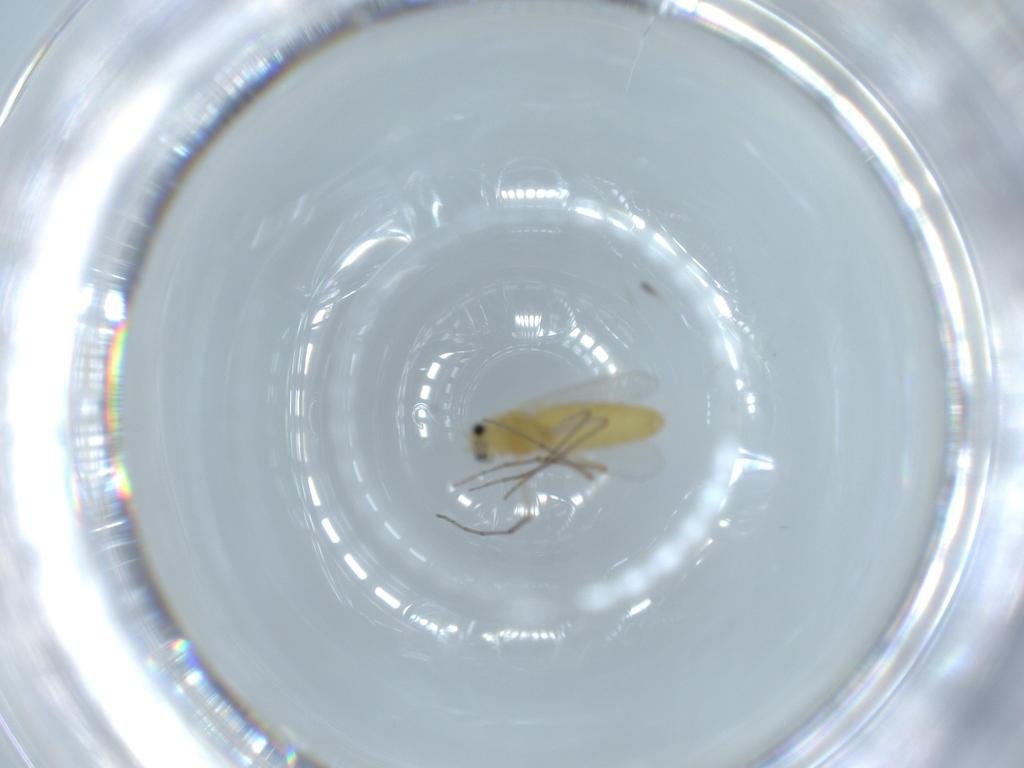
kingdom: Animalia
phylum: Arthropoda
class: Insecta
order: Diptera
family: Chironomidae
